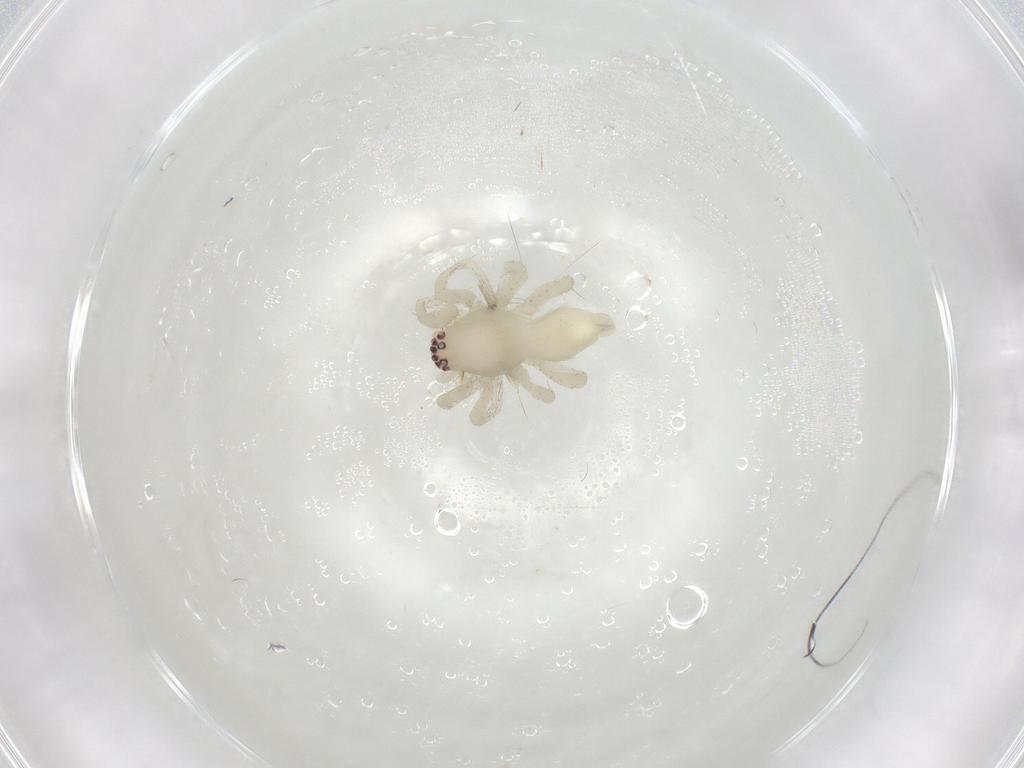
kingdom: Animalia
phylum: Arthropoda
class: Arachnida
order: Araneae
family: Clubionidae
